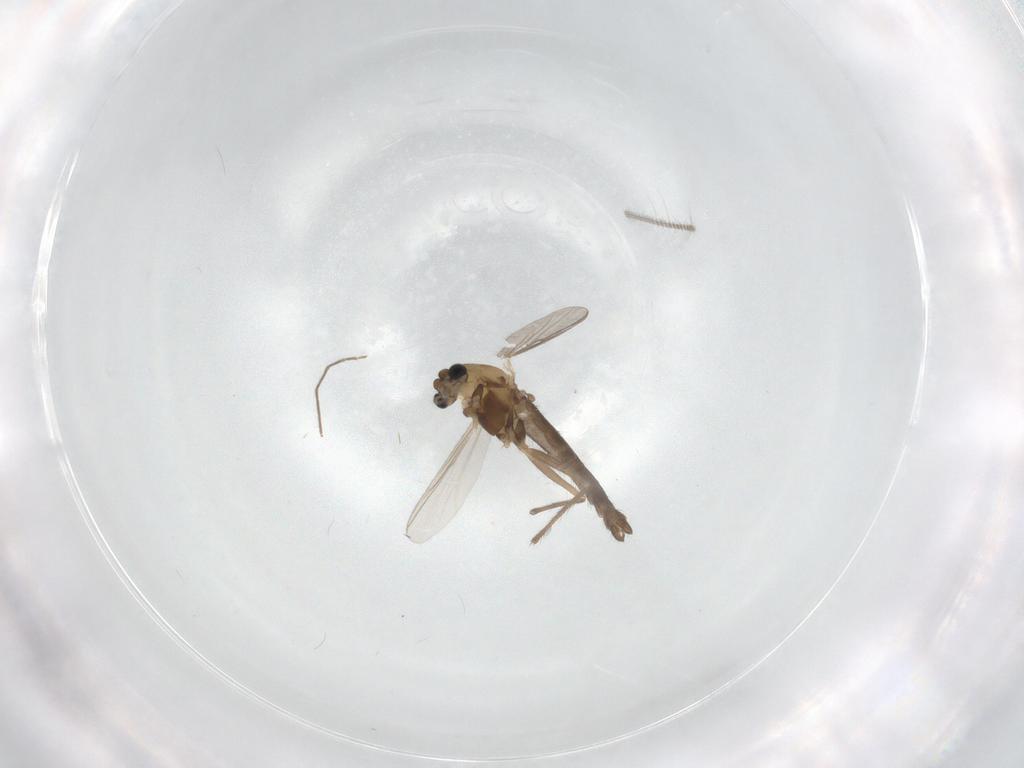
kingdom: Animalia
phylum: Arthropoda
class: Insecta
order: Diptera
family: Chironomidae
